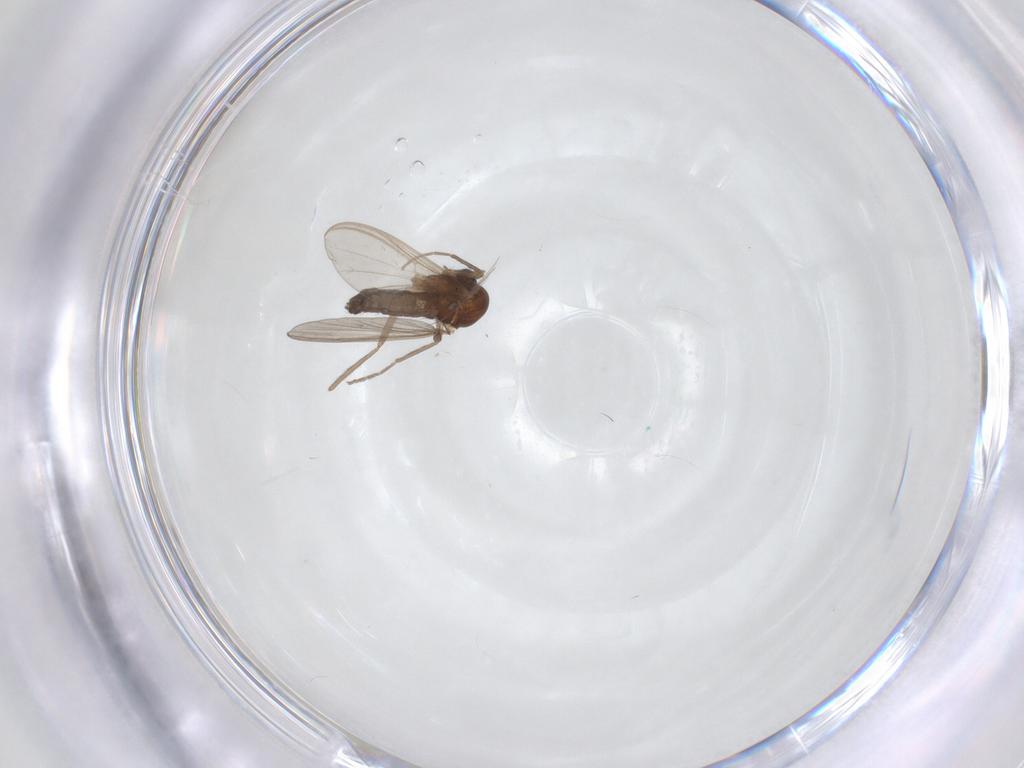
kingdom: Animalia
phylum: Arthropoda
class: Insecta
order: Diptera
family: Chironomidae
